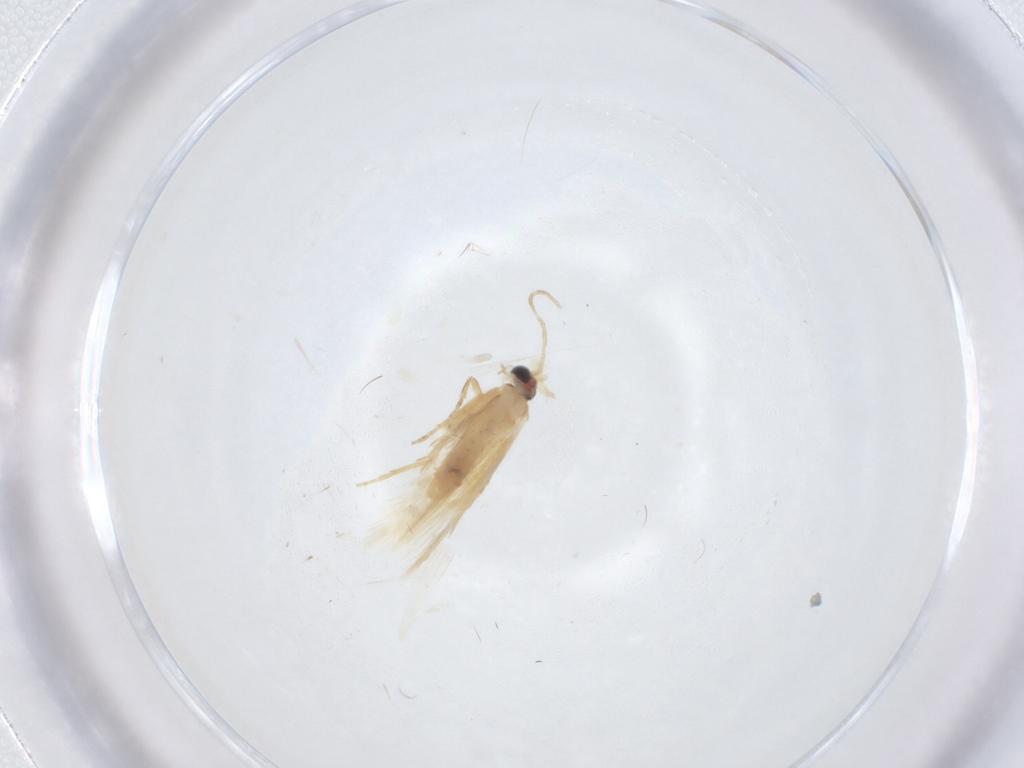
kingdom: Animalia
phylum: Arthropoda
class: Insecta
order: Lepidoptera
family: Nepticulidae
